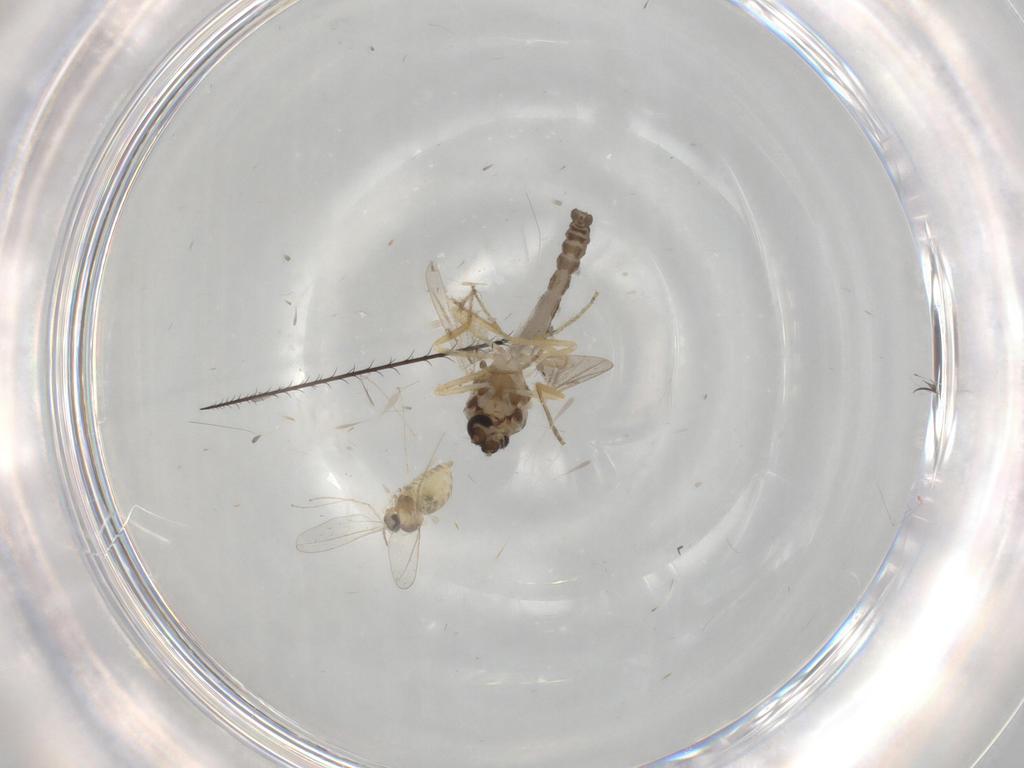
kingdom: Animalia
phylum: Arthropoda
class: Insecta
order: Diptera
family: Ceratopogonidae
